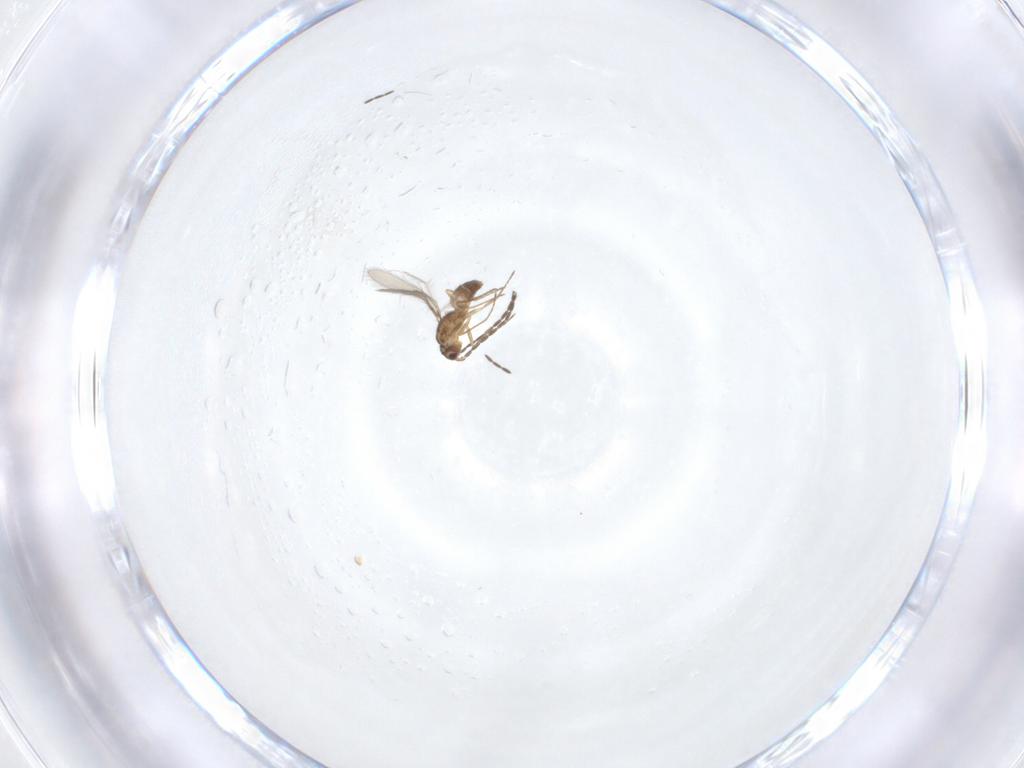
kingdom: Animalia
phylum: Arthropoda
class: Insecta
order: Hymenoptera
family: Mymaridae
